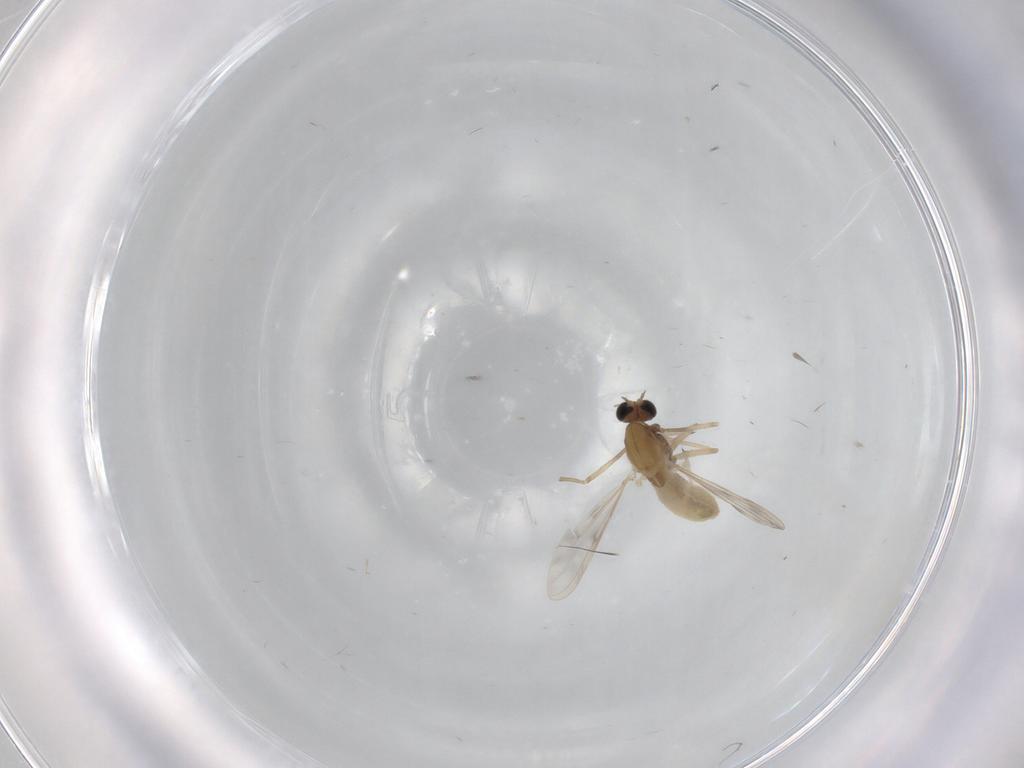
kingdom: Animalia
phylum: Arthropoda
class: Insecta
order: Diptera
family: Chironomidae
